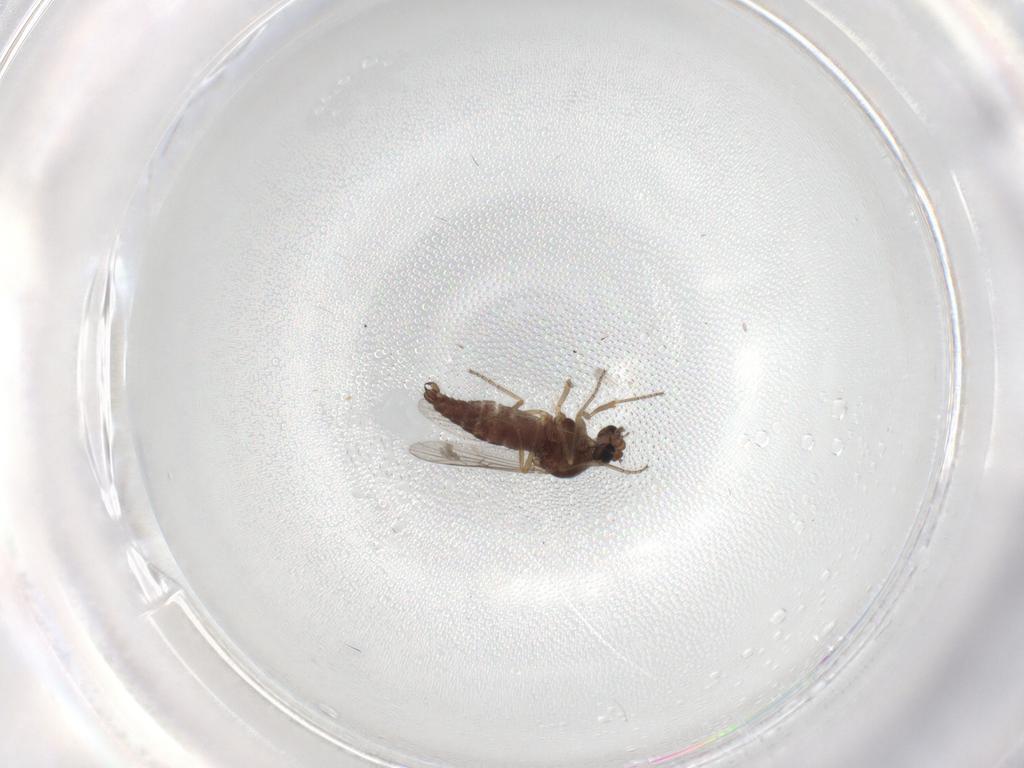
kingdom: Animalia
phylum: Arthropoda
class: Insecta
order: Diptera
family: Ceratopogonidae
